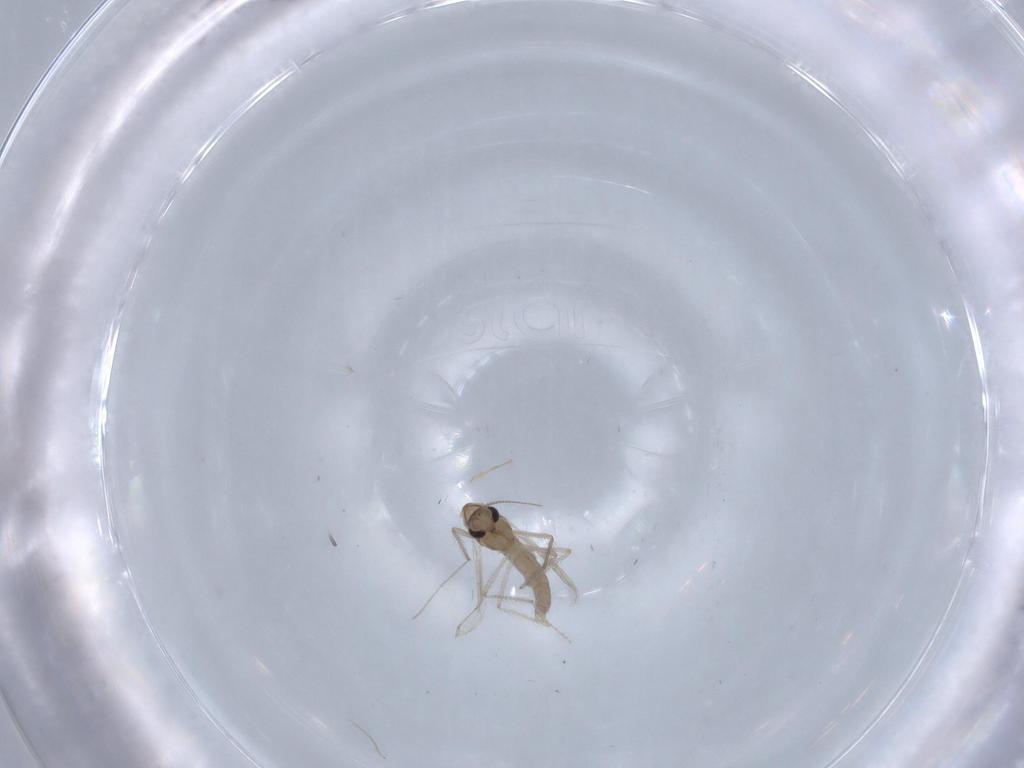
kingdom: Animalia
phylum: Arthropoda
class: Insecta
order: Diptera
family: Chironomidae
